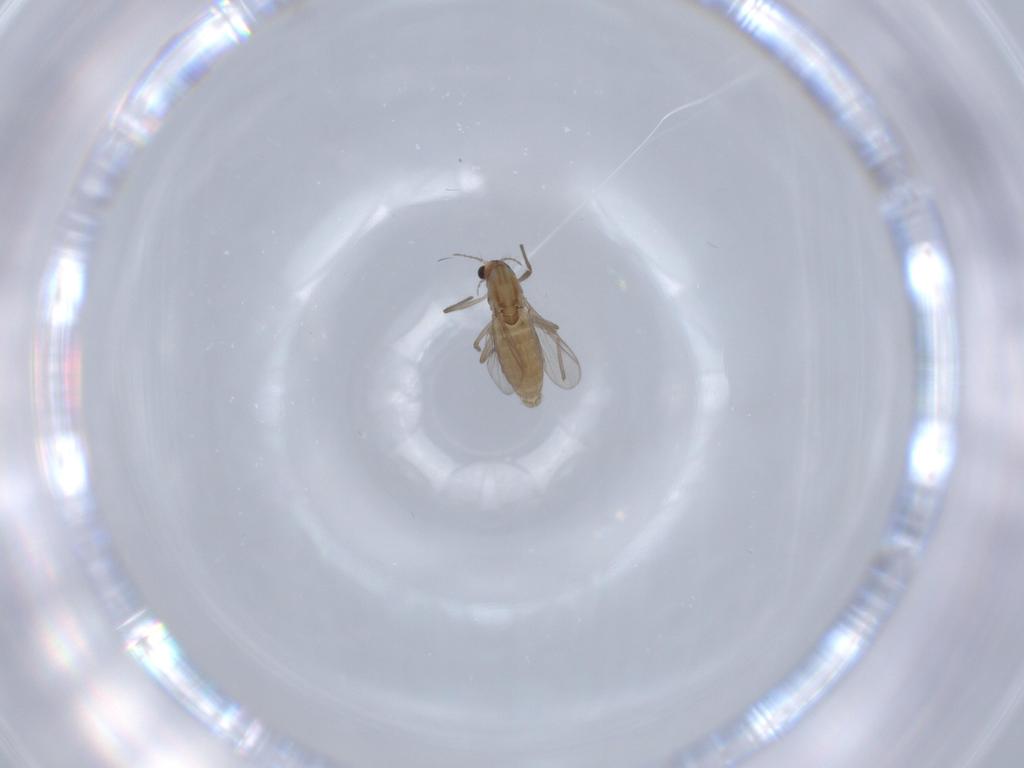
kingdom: Animalia
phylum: Arthropoda
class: Insecta
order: Diptera
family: Chironomidae
